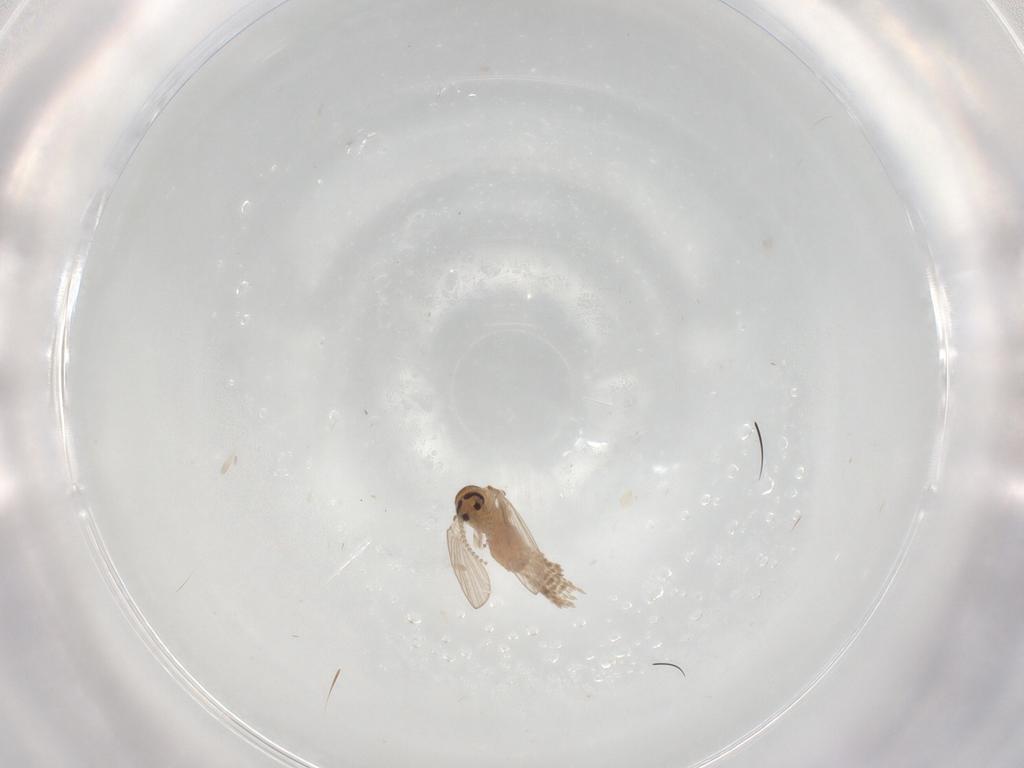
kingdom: Animalia
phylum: Arthropoda
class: Insecta
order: Diptera
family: Psychodidae
